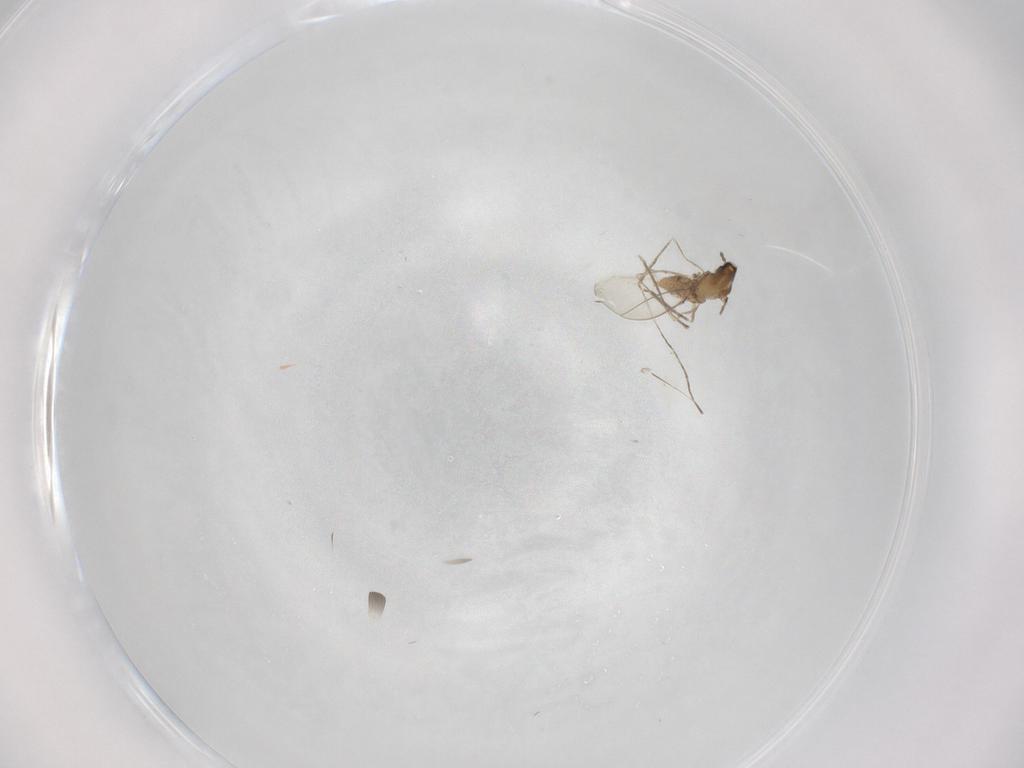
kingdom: Animalia
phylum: Arthropoda
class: Insecta
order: Diptera
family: Cecidomyiidae
